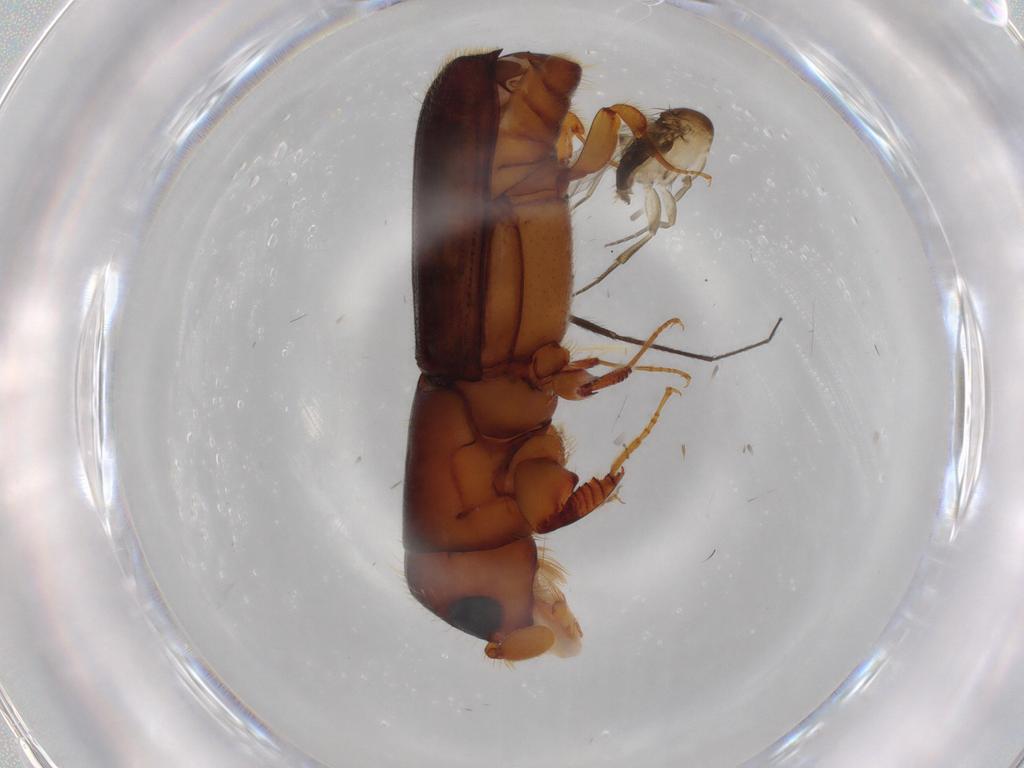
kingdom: Animalia
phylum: Arthropoda
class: Insecta
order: Coleoptera
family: Curculionidae
